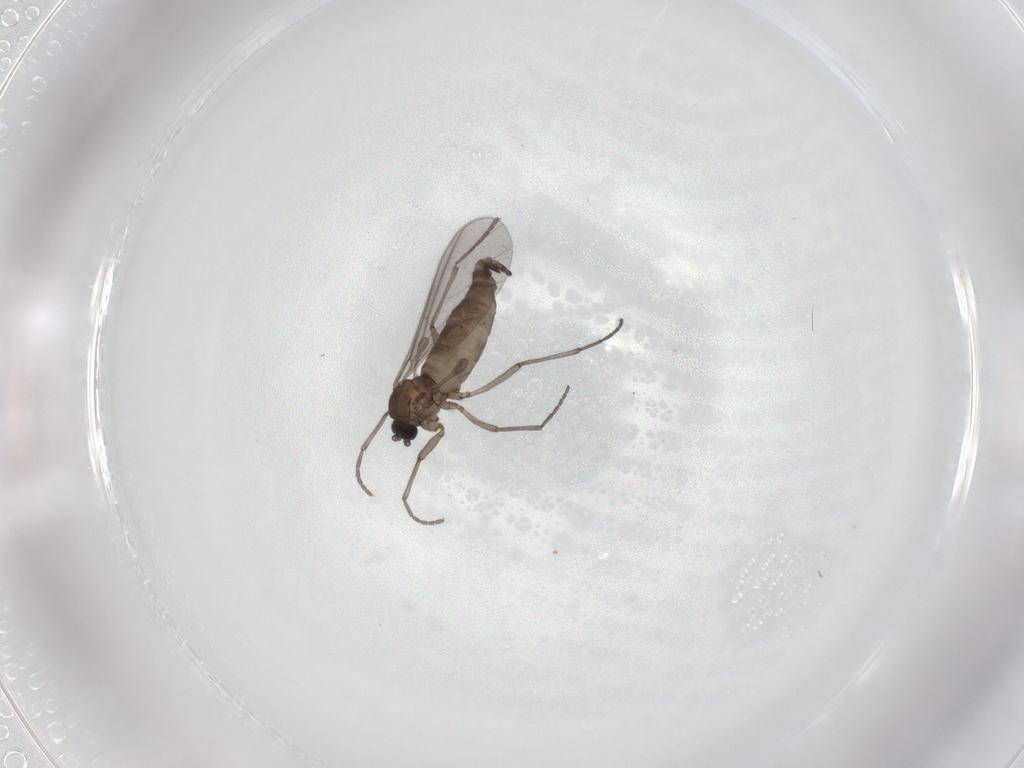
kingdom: Animalia
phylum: Arthropoda
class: Insecta
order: Diptera
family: Sciaridae
